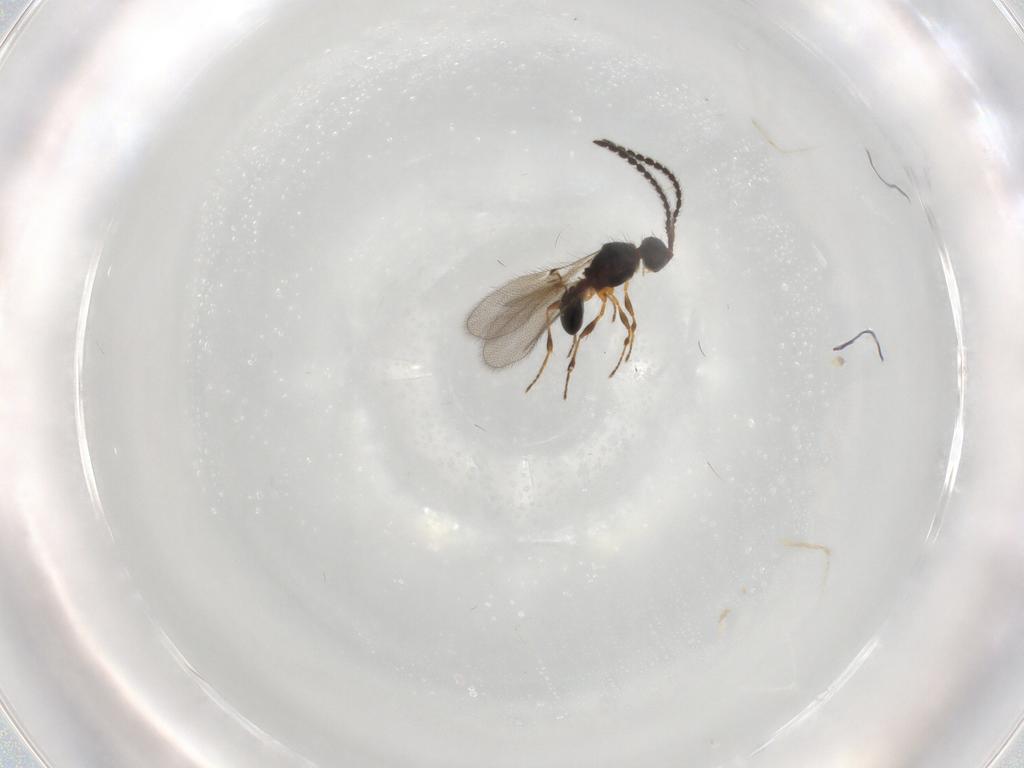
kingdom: Animalia
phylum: Arthropoda
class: Insecta
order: Hymenoptera
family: Diapriidae
